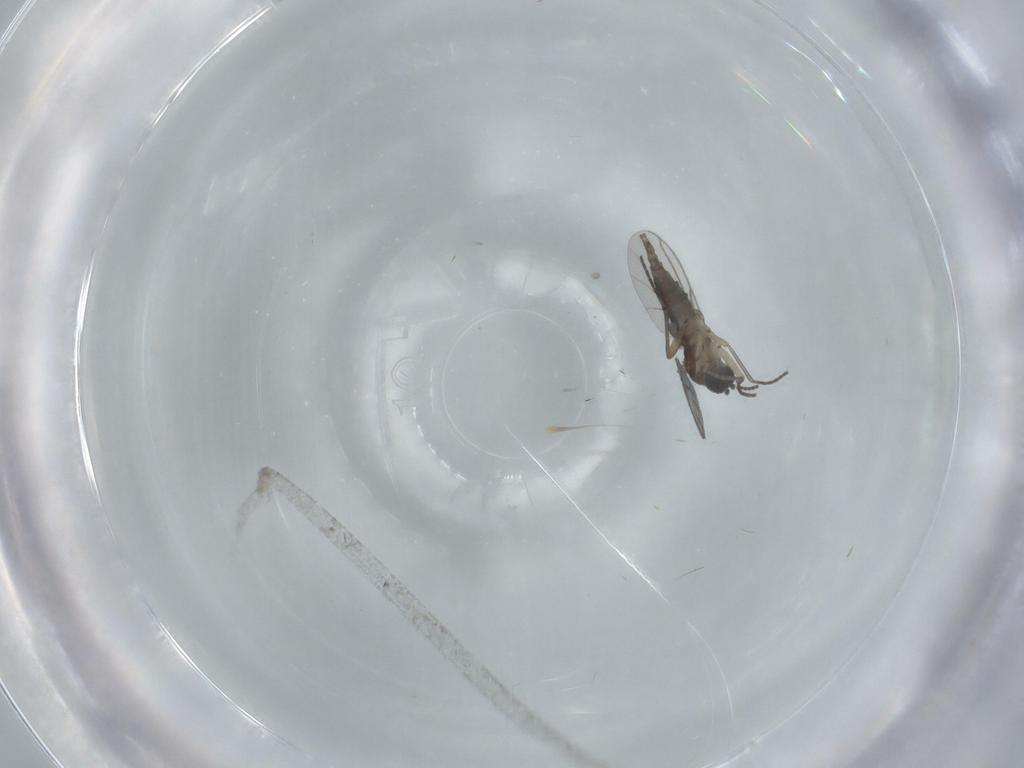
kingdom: Animalia
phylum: Arthropoda
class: Insecta
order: Diptera
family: Sciaridae
